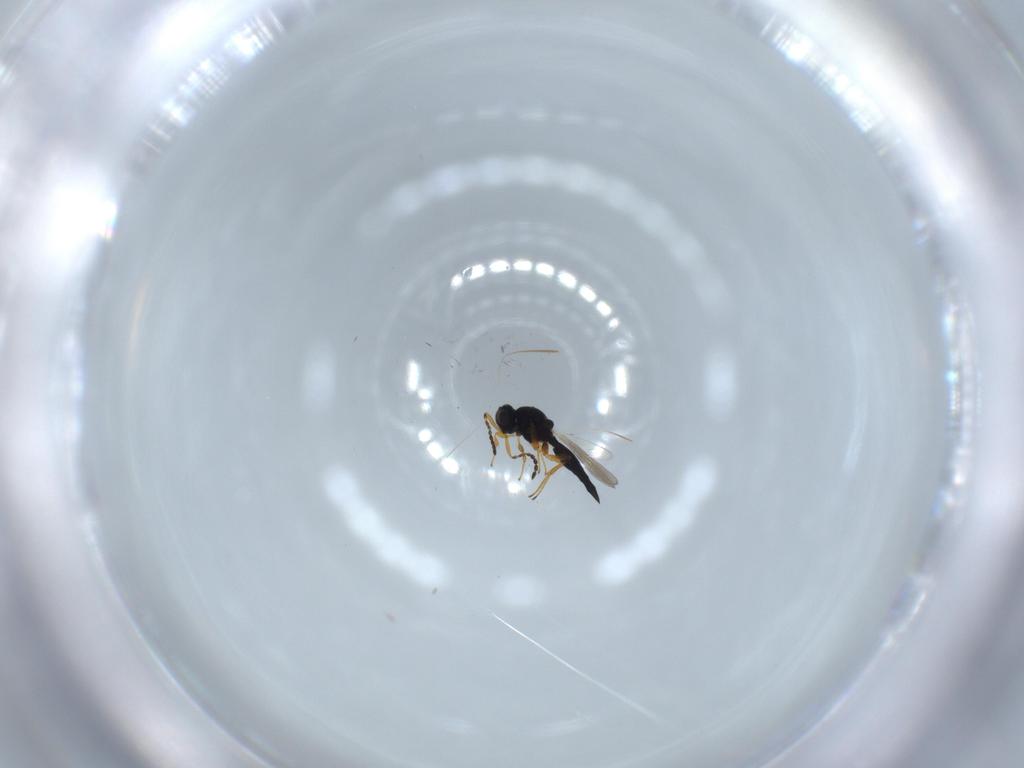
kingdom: Animalia
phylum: Arthropoda
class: Insecta
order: Hymenoptera
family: Platygastridae
